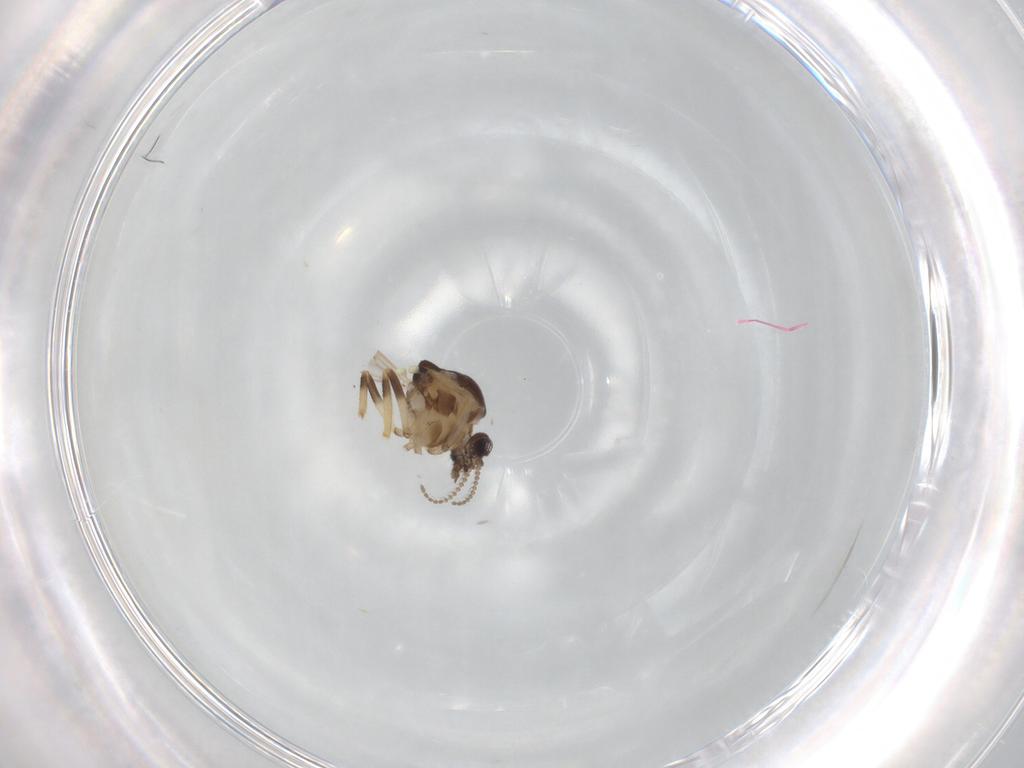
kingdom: Animalia
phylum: Arthropoda
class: Insecta
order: Diptera
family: Ceratopogonidae
